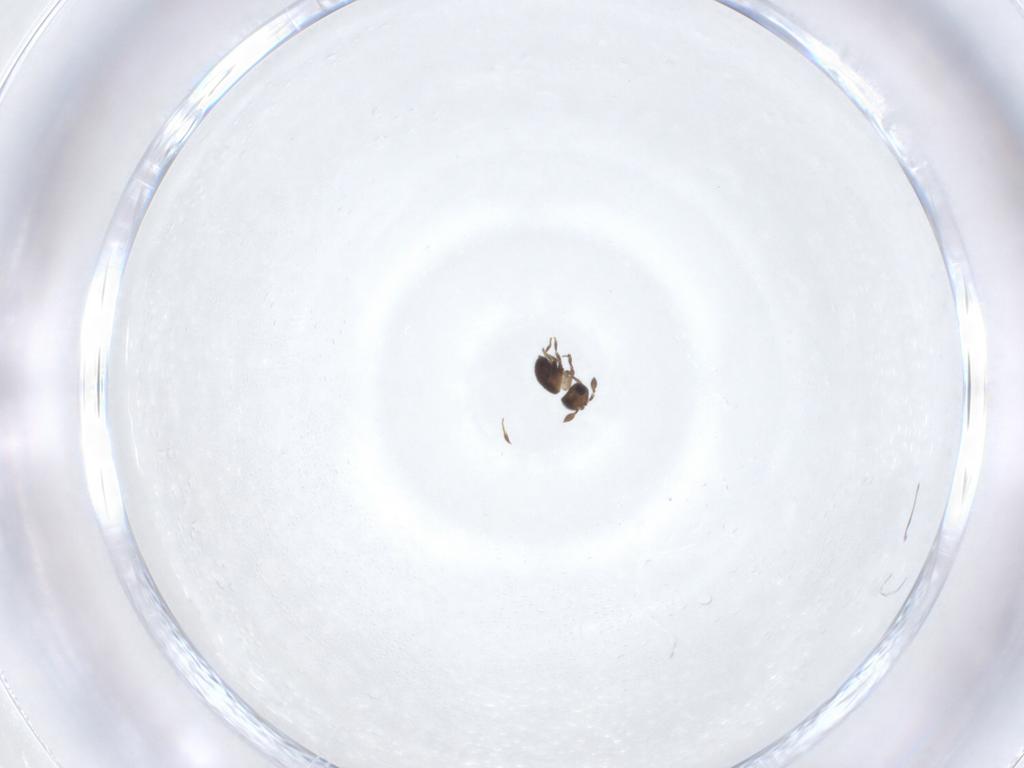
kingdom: Animalia
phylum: Arthropoda
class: Insecta
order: Hymenoptera
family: Scelionidae
